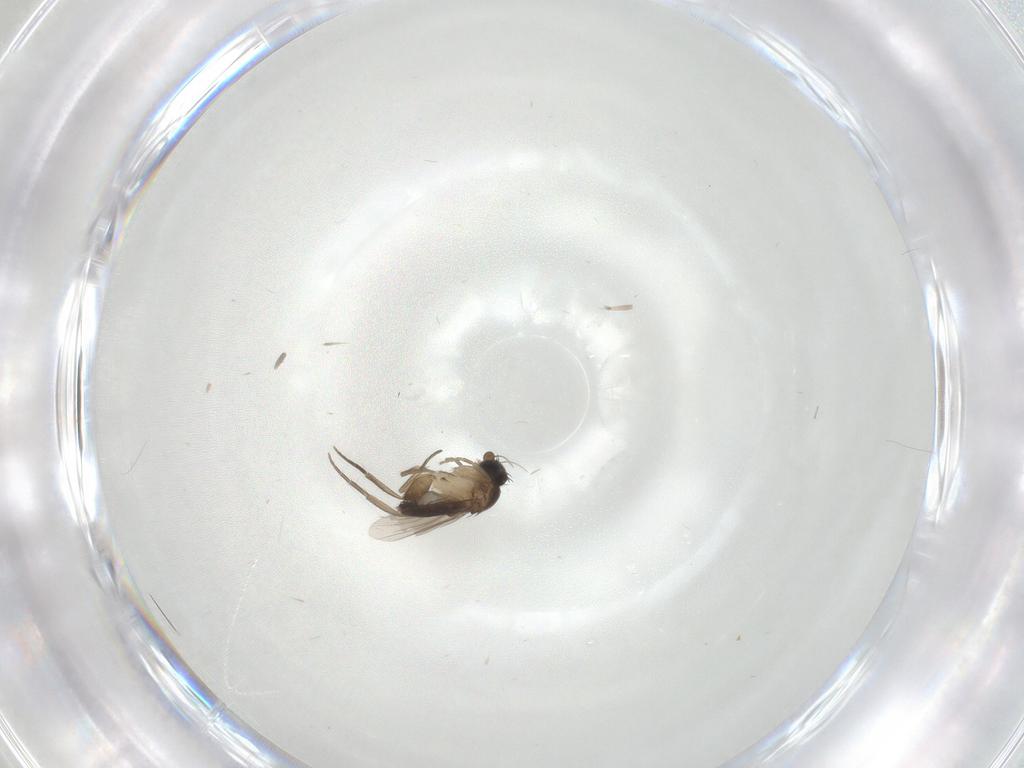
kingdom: Animalia
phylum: Arthropoda
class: Insecta
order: Diptera
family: Phoridae
